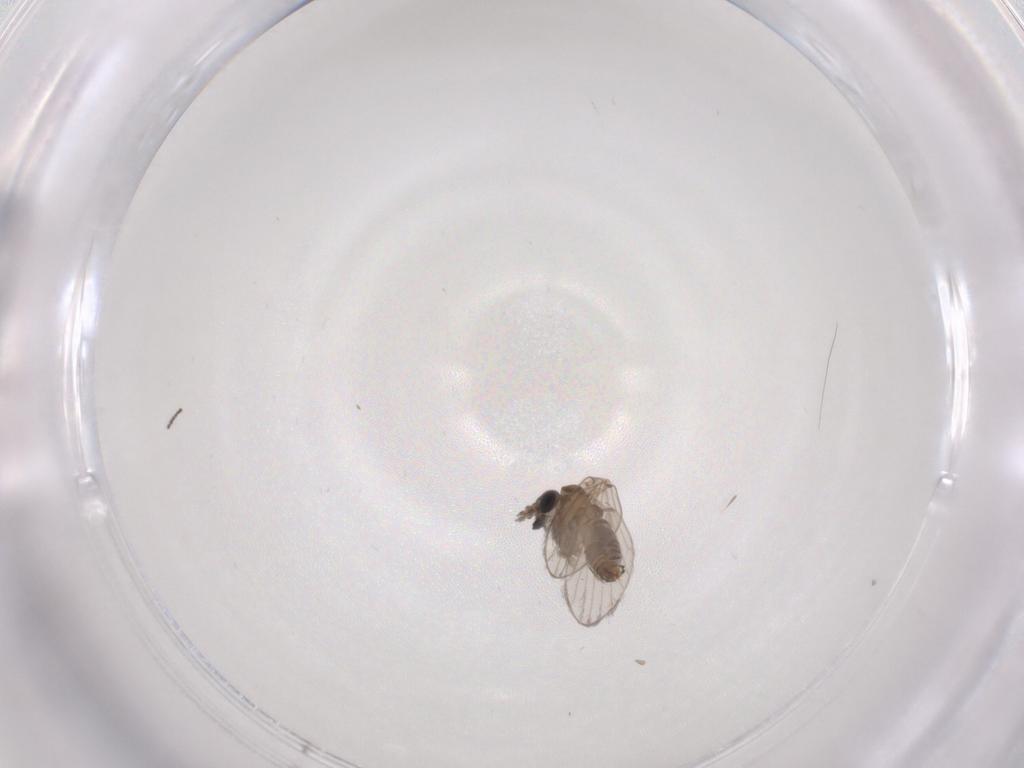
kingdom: Animalia
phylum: Arthropoda
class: Insecta
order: Diptera
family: Psychodidae
